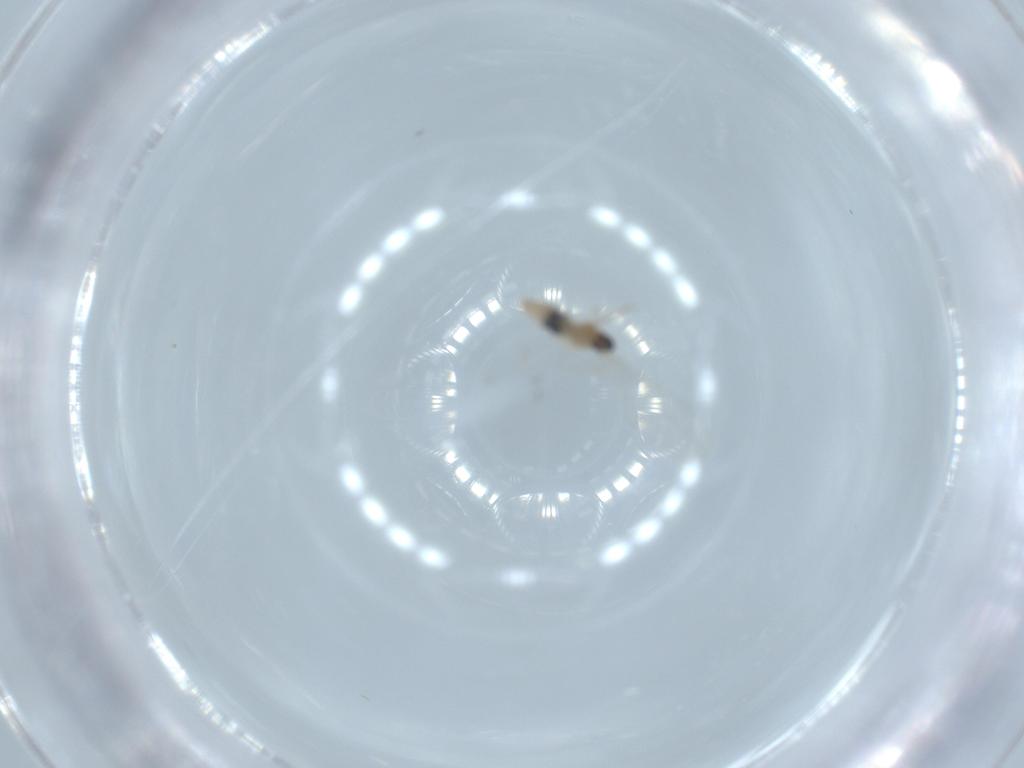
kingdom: Animalia
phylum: Arthropoda
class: Insecta
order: Diptera
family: Cecidomyiidae
